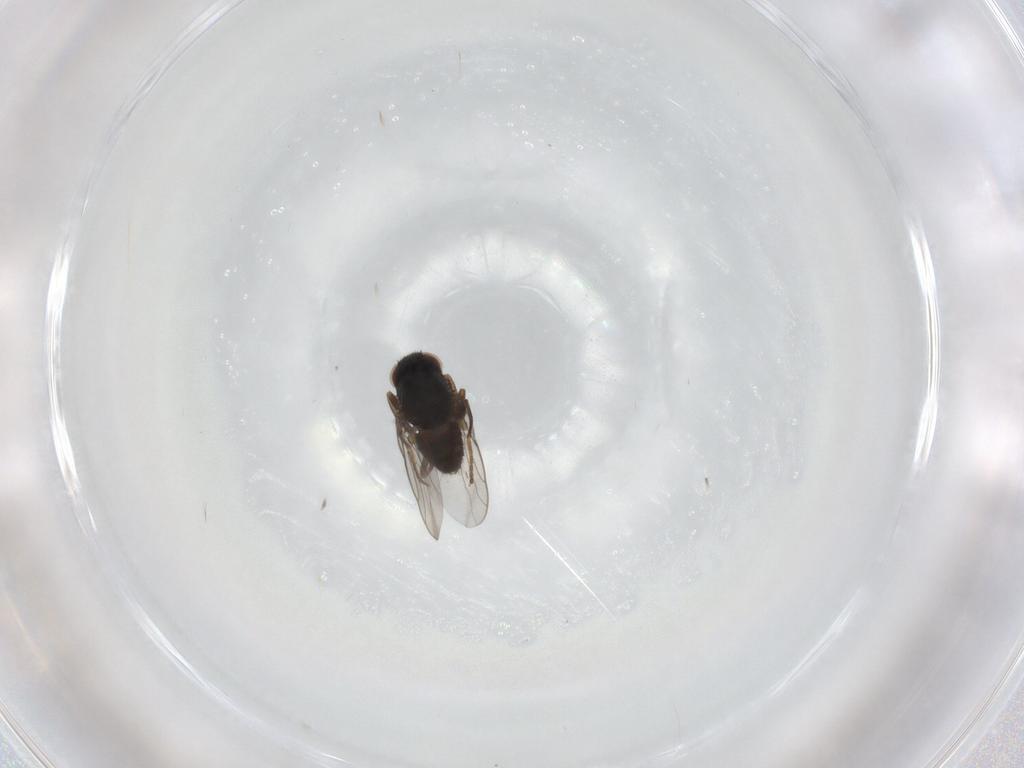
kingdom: Animalia
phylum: Arthropoda
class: Insecta
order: Diptera
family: Chloropidae
